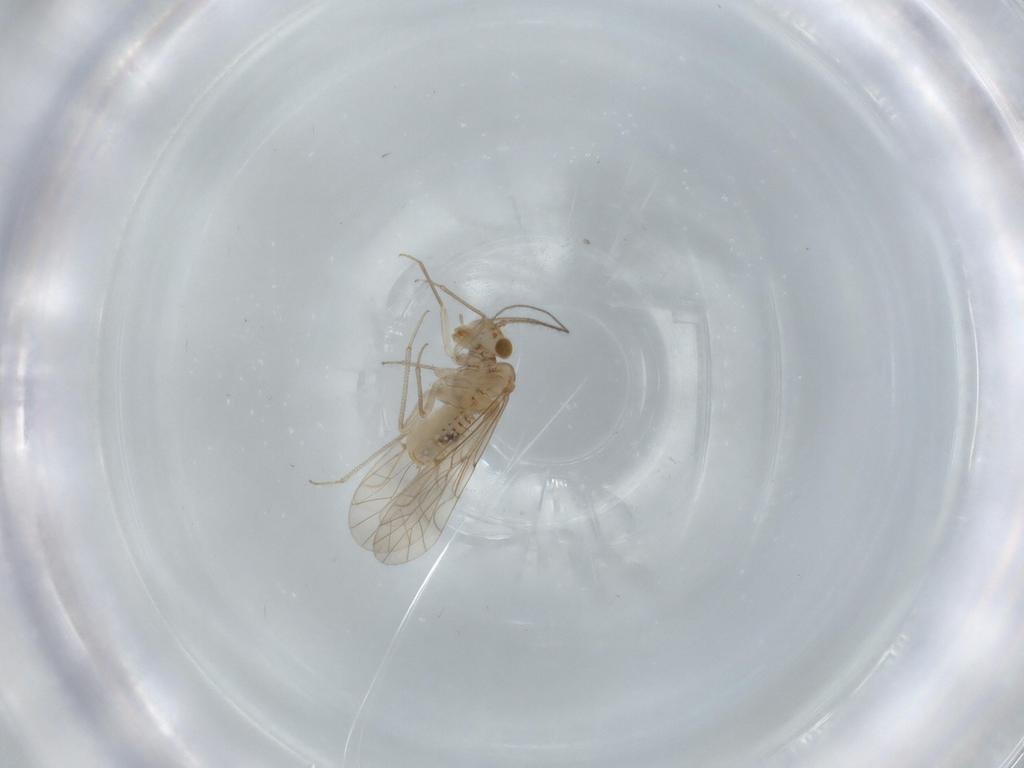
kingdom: Animalia
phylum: Arthropoda
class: Insecta
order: Psocodea
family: Lachesillidae
